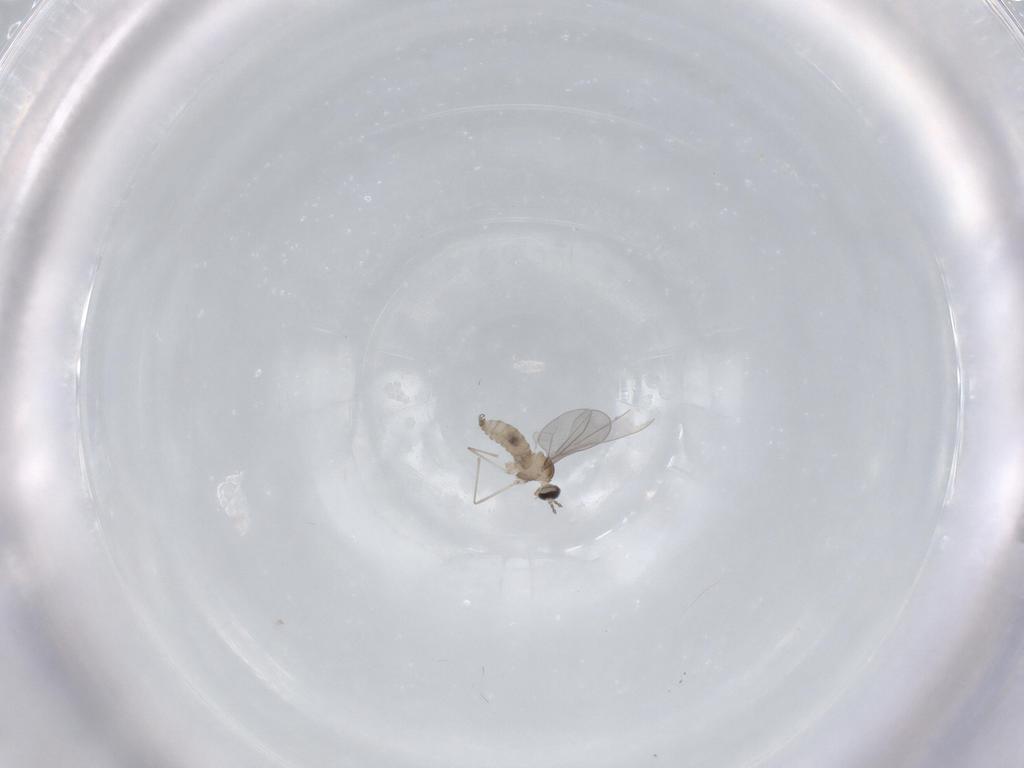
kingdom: Animalia
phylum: Arthropoda
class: Insecta
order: Diptera
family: Cecidomyiidae
